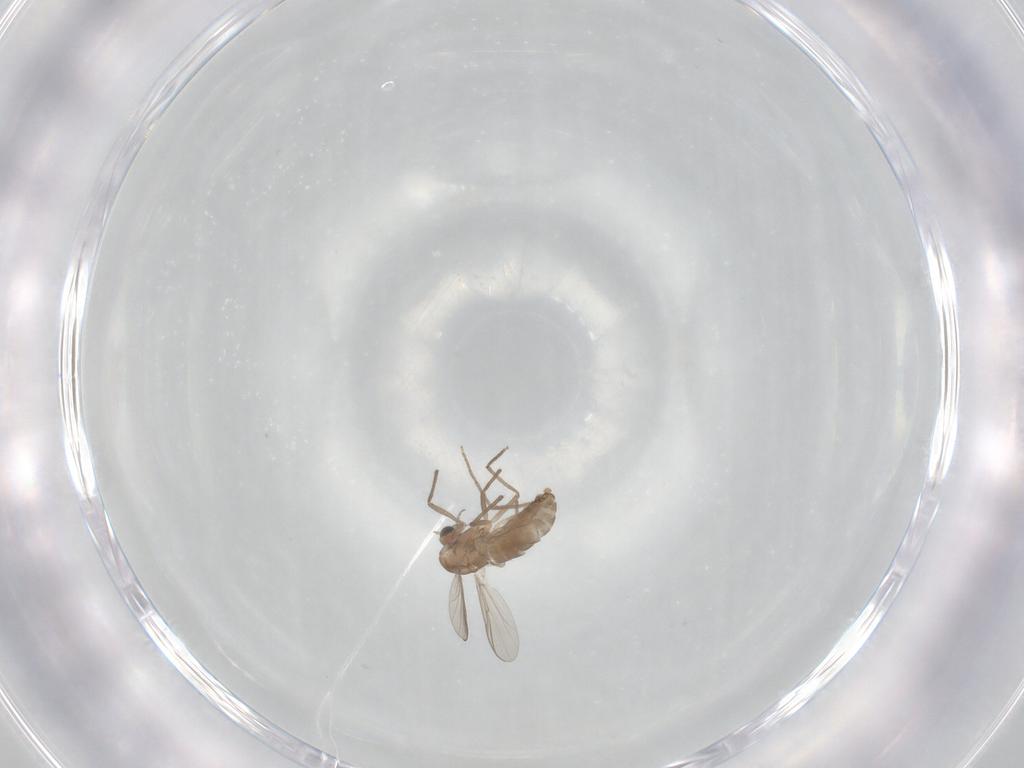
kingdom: Animalia
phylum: Arthropoda
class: Insecta
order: Diptera
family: Chironomidae
